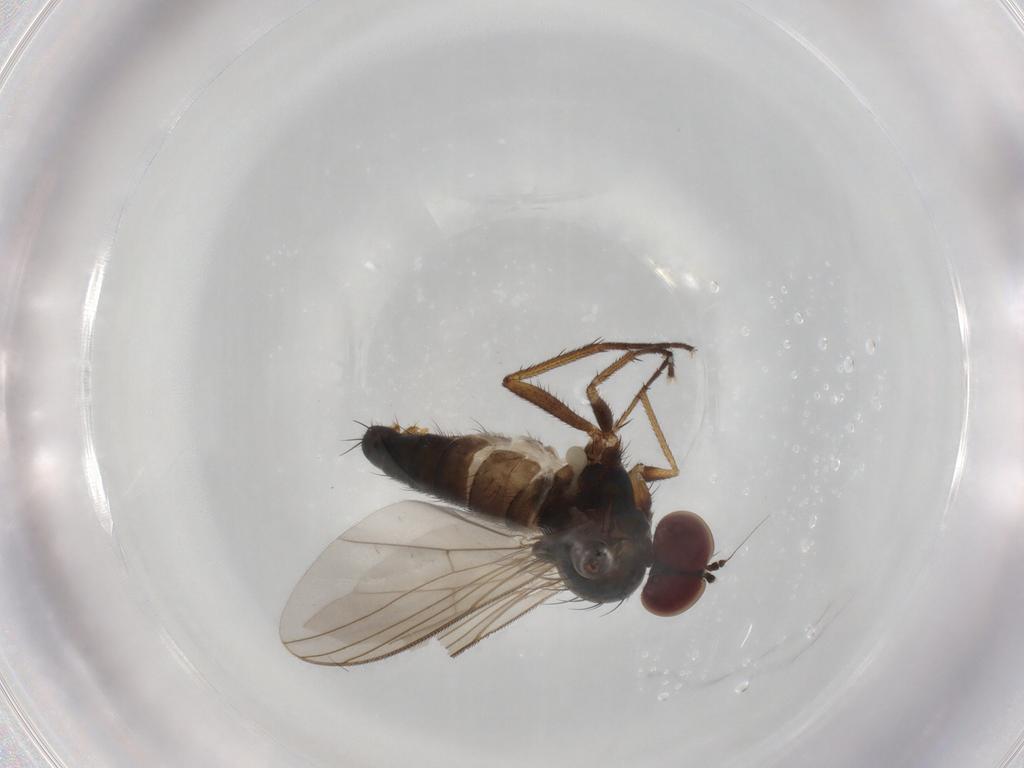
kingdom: Animalia
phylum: Arthropoda
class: Insecta
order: Diptera
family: Dolichopodidae
